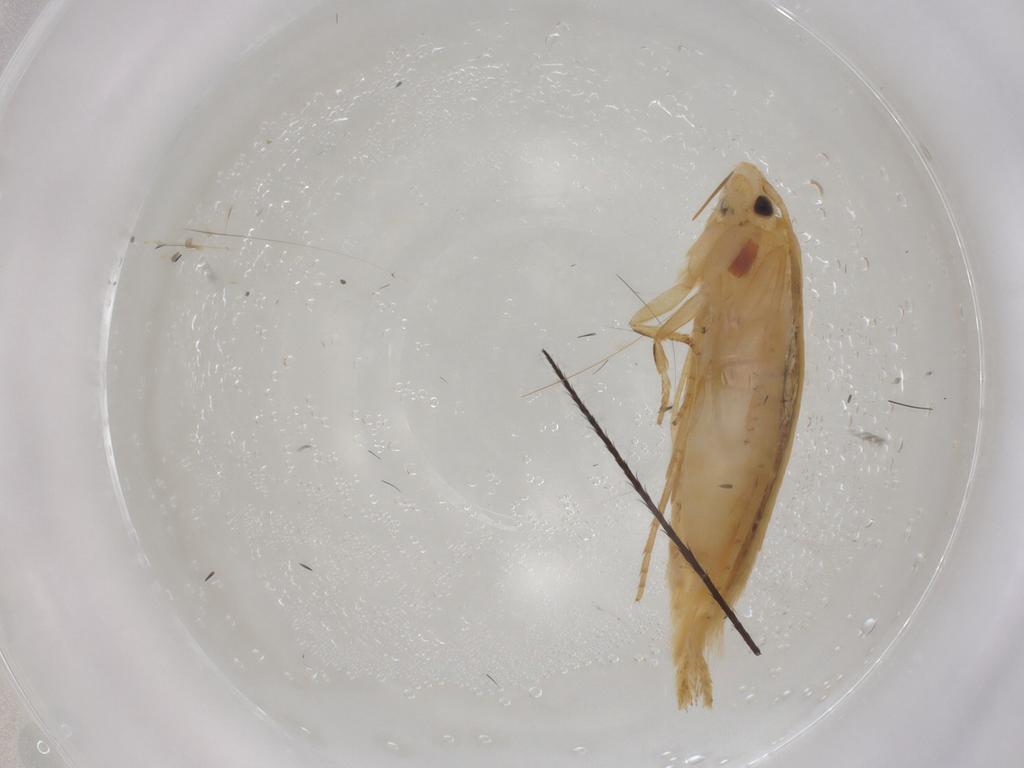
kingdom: Animalia
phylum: Arthropoda
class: Insecta
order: Lepidoptera
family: Tineidae
